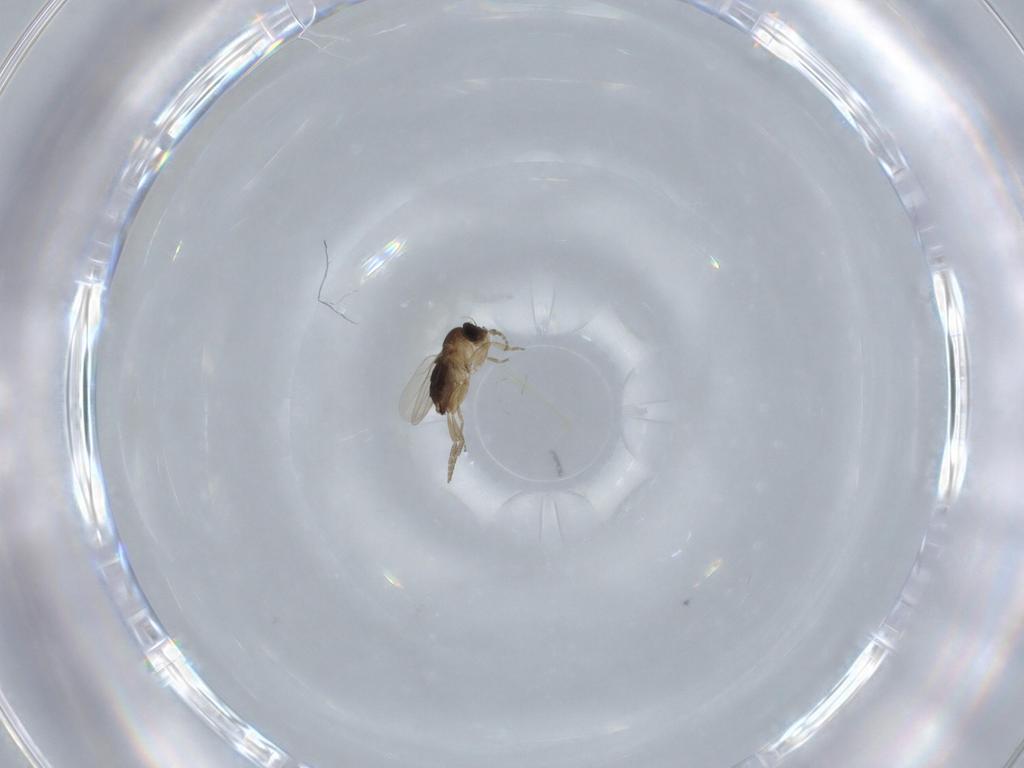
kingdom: Animalia
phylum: Arthropoda
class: Insecta
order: Diptera
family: Phoridae
